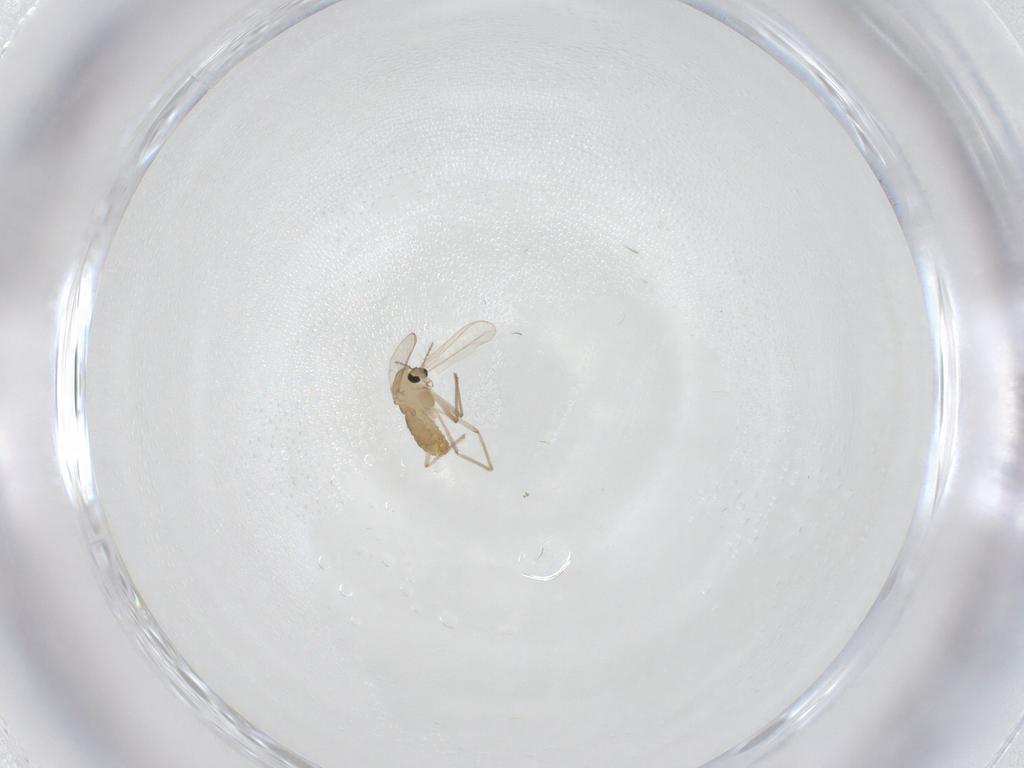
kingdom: Animalia
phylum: Arthropoda
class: Insecta
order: Diptera
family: Chironomidae
